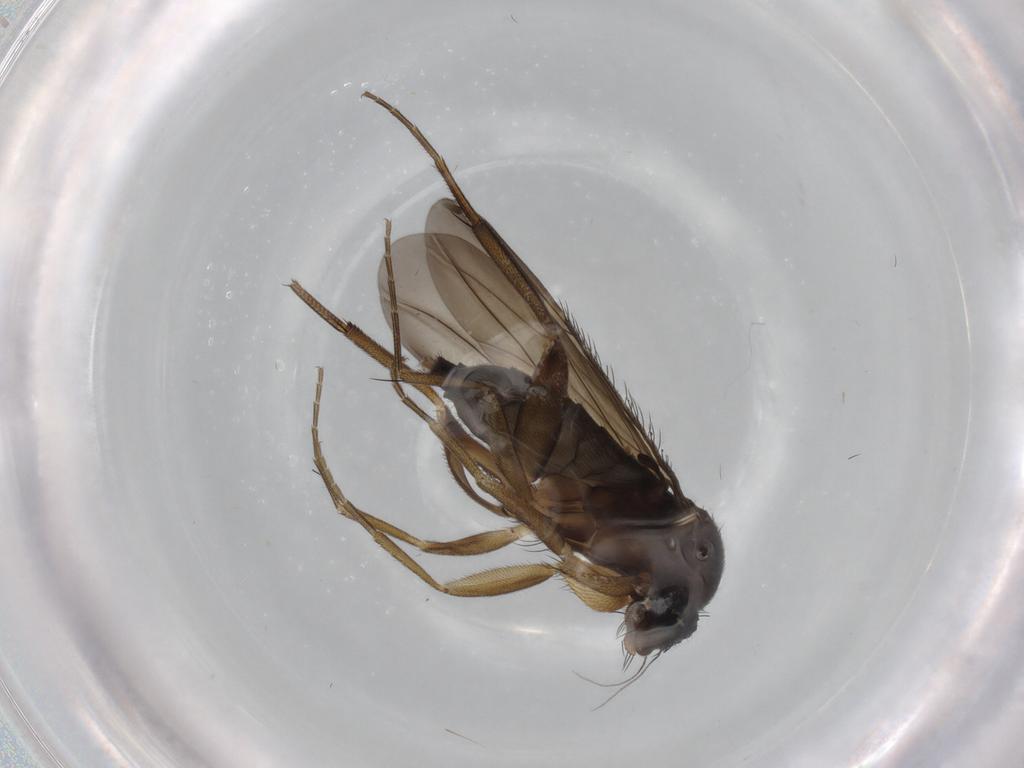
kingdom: Animalia
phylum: Arthropoda
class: Insecta
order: Diptera
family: Phoridae
